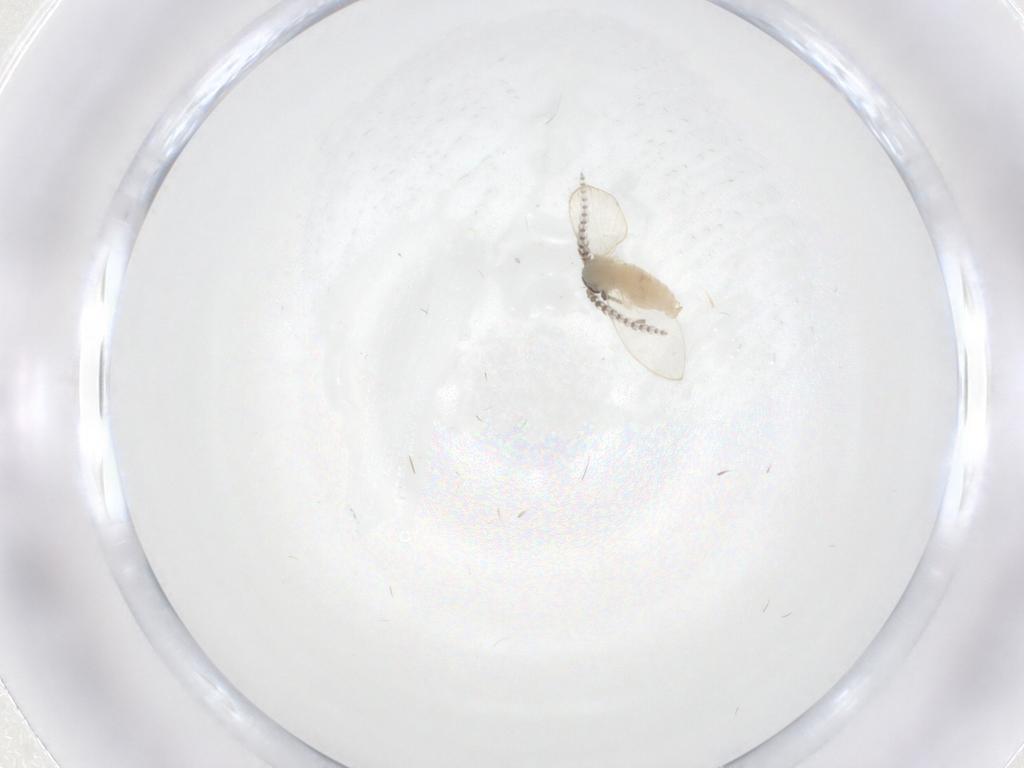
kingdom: Animalia
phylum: Arthropoda
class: Insecta
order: Diptera
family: Psychodidae
